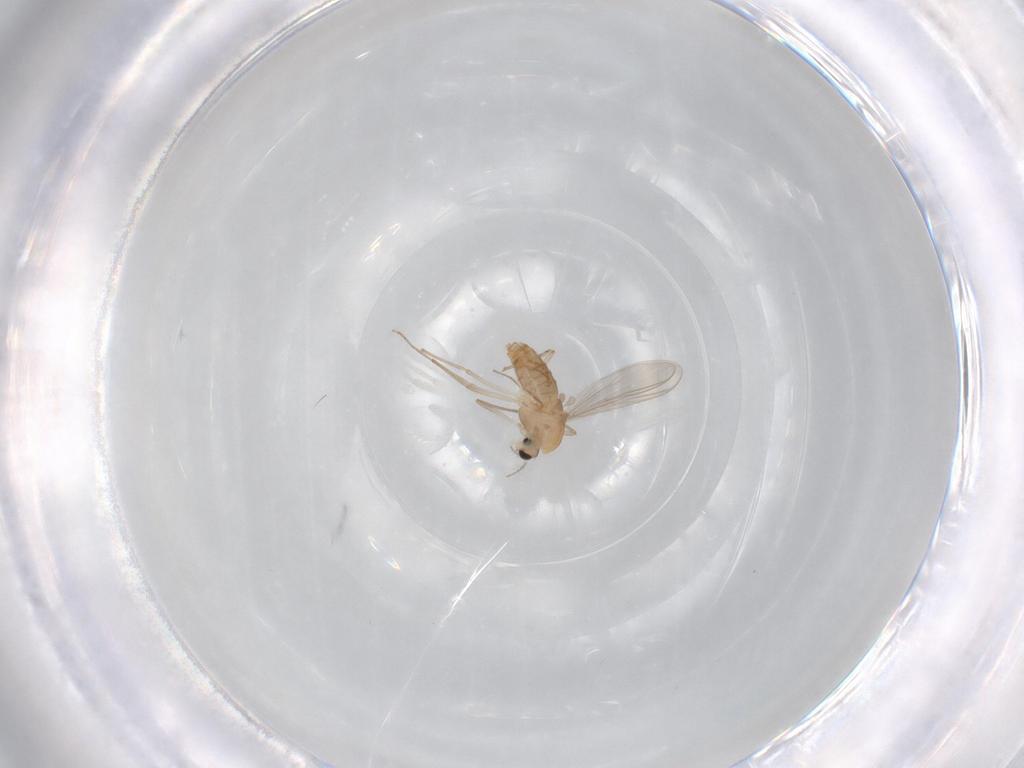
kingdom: Animalia
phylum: Arthropoda
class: Insecta
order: Diptera
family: Chironomidae
